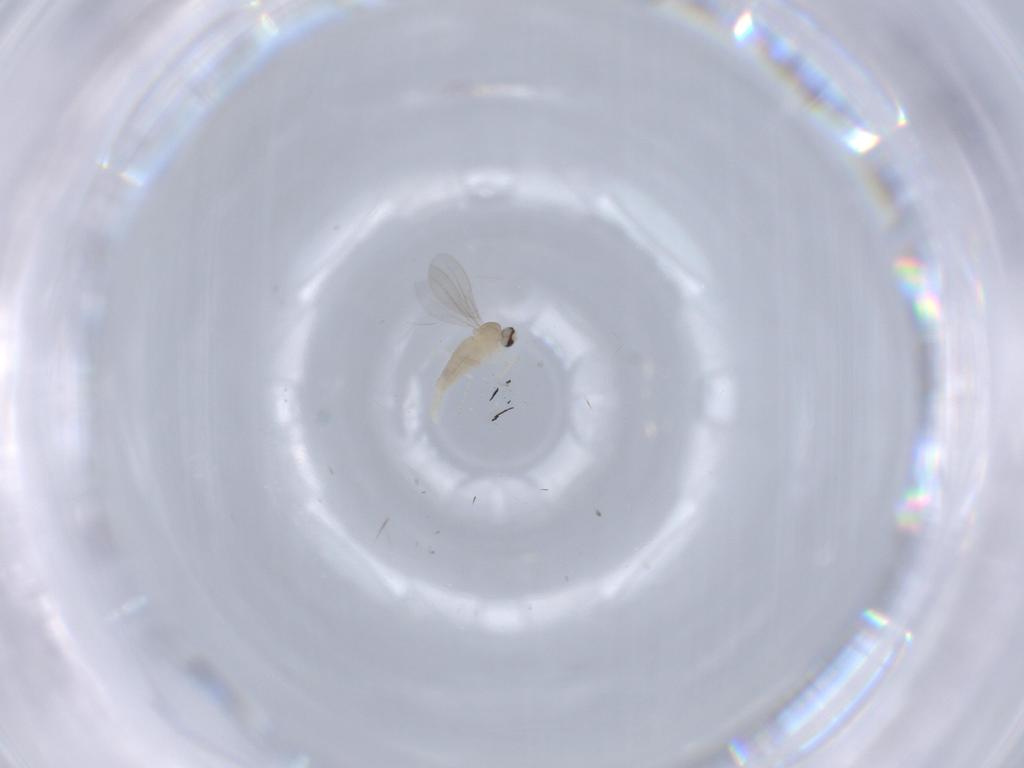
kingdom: Animalia
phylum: Arthropoda
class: Insecta
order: Diptera
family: Cecidomyiidae
